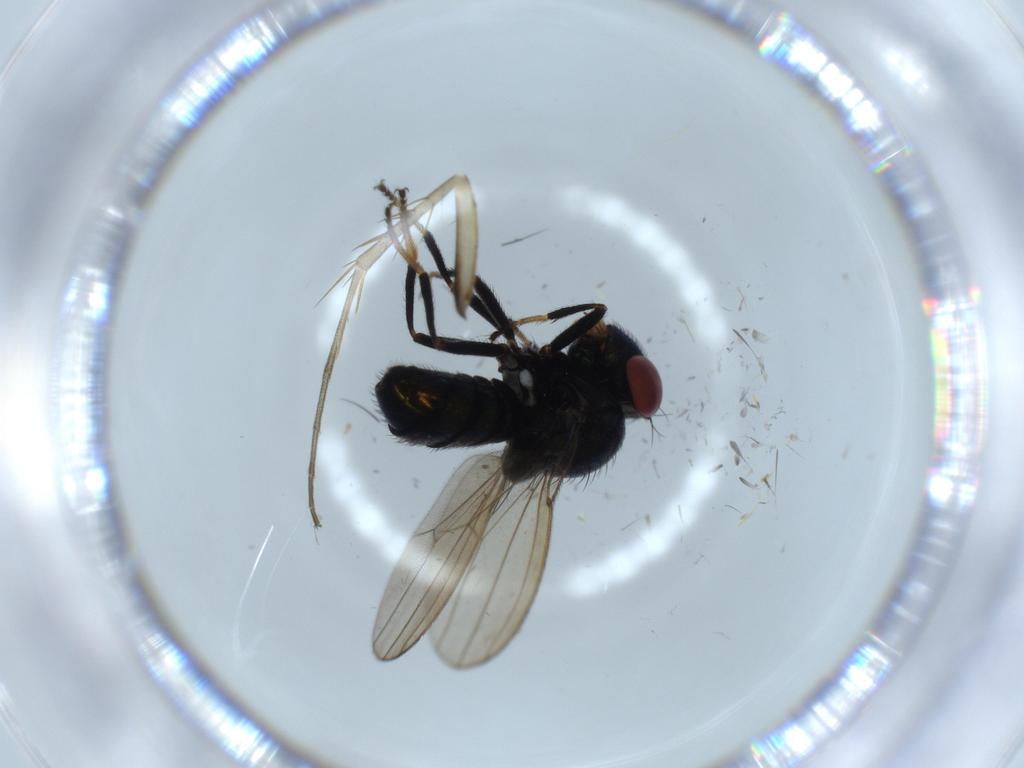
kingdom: Animalia
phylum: Arthropoda
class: Insecta
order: Diptera
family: Ephydridae
